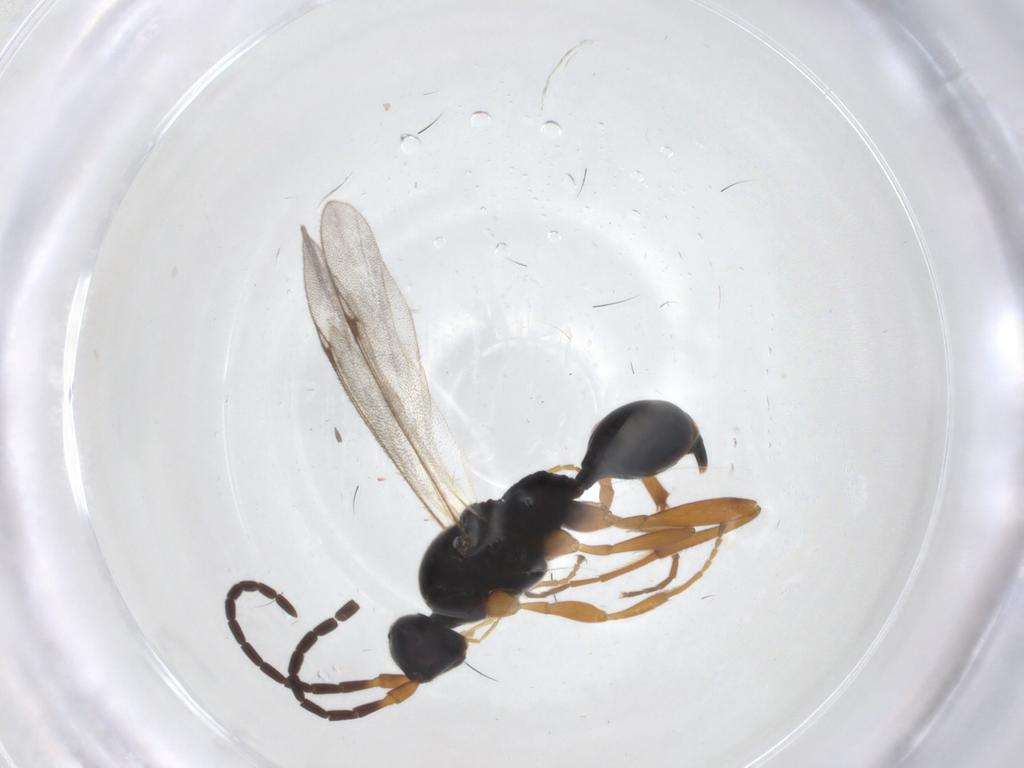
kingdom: Animalia
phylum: Arthropoda
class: Insecta
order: Hymenoptera
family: Proctotrupidae
